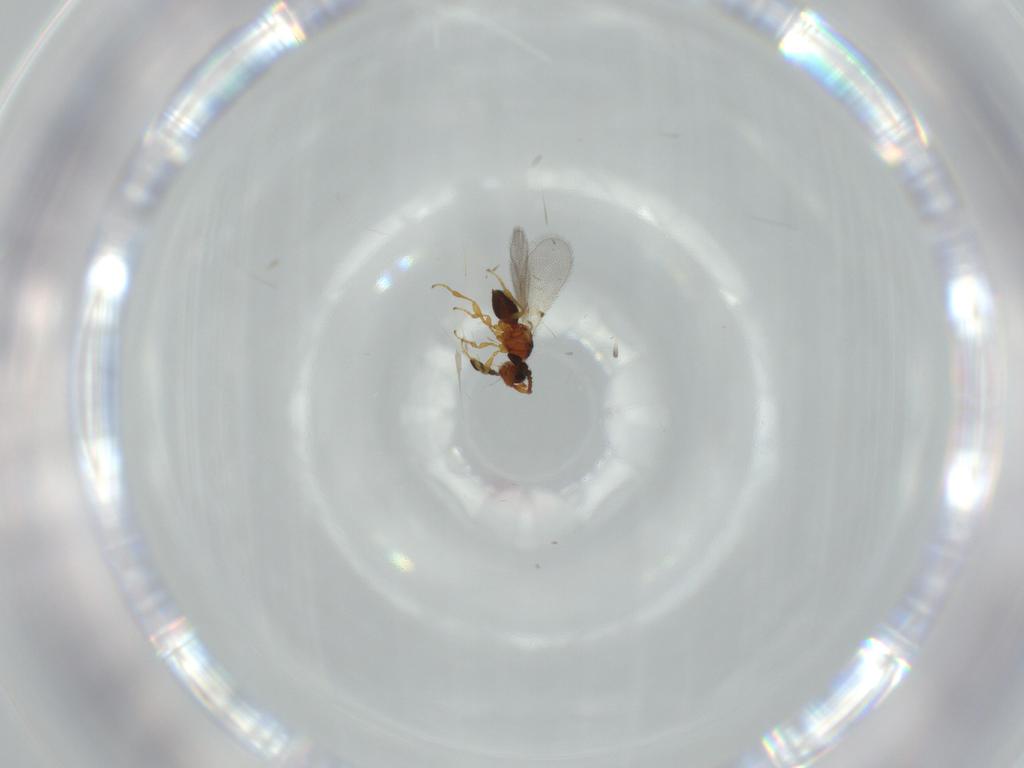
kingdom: Animalia
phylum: Arthropoda
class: Insecta
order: Hymenoptera
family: Diapriidae
